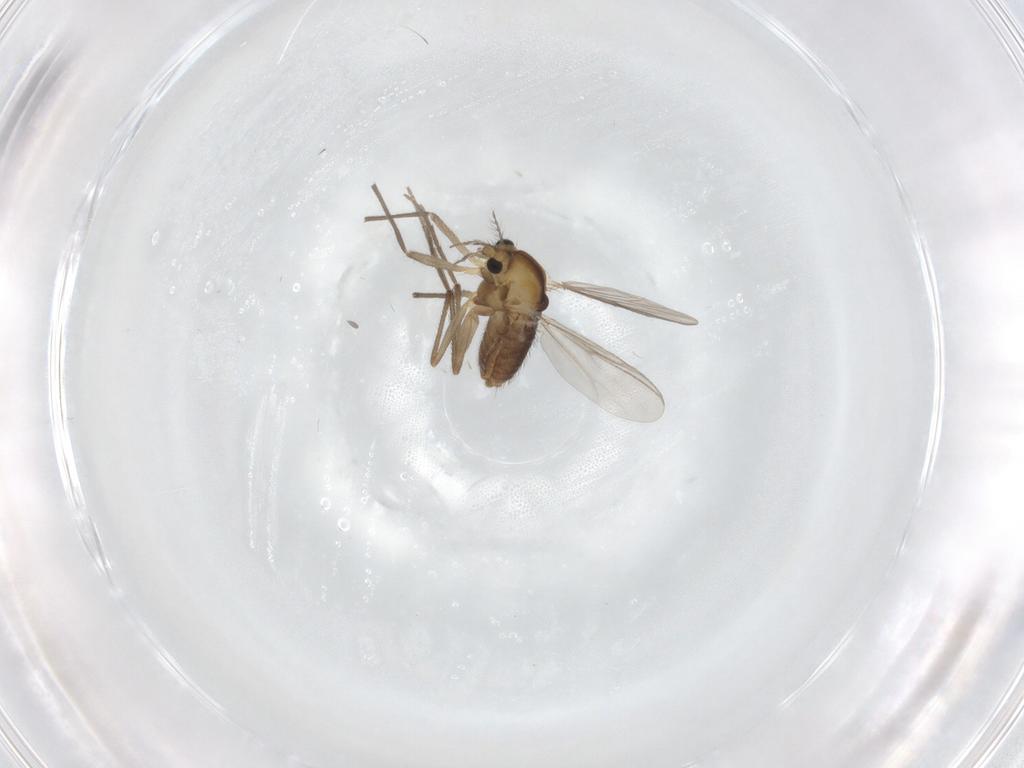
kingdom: Animalia
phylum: Arthropoda
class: Insecta
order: Diptera
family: Chironomidae
